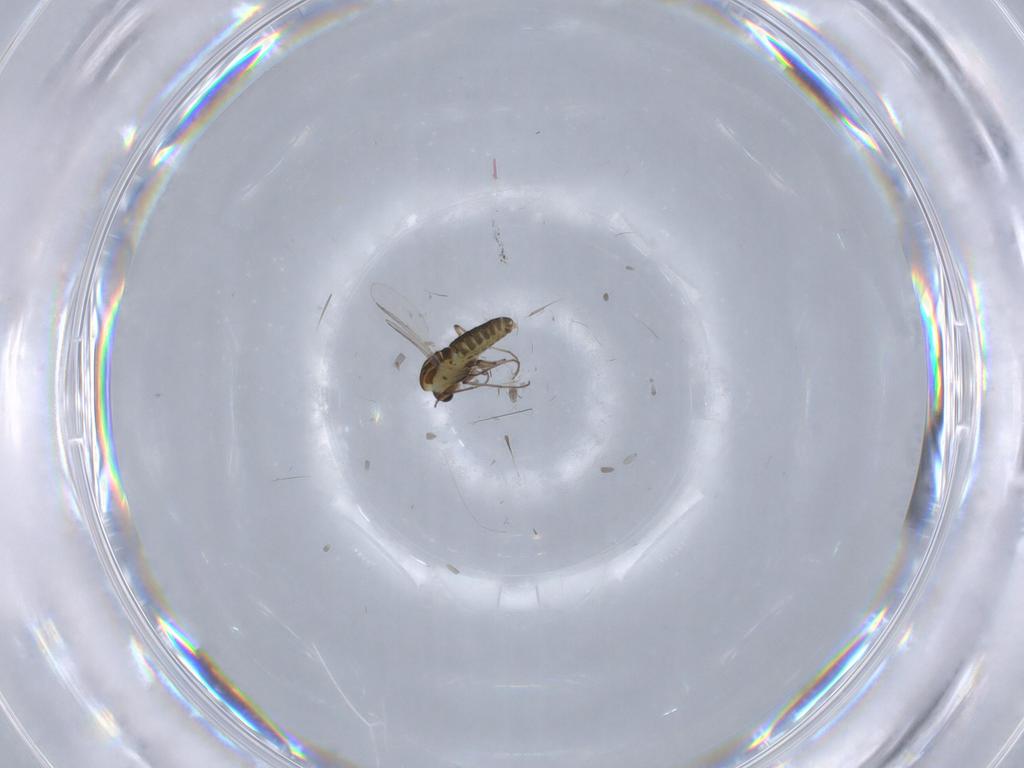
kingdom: Animalia
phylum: Arthropoda
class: Insecta
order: Diptera
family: Chironomidae
